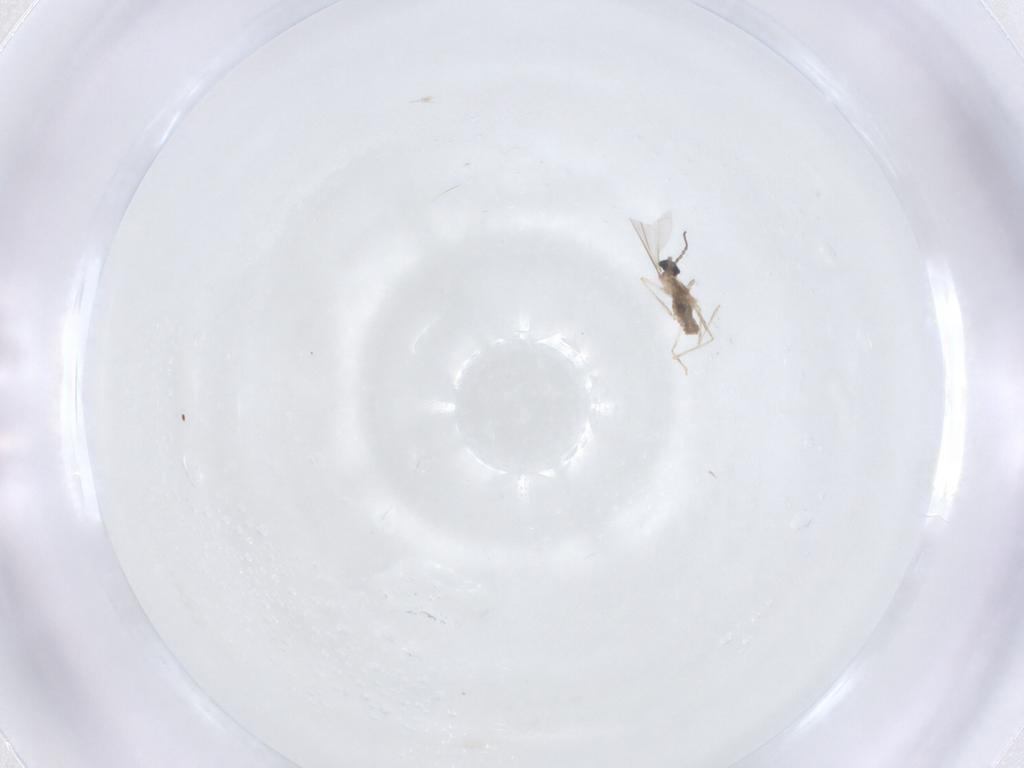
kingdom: Animalia
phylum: Arthropoda
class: Insecta
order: Diptera
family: Cecidomyiidae
